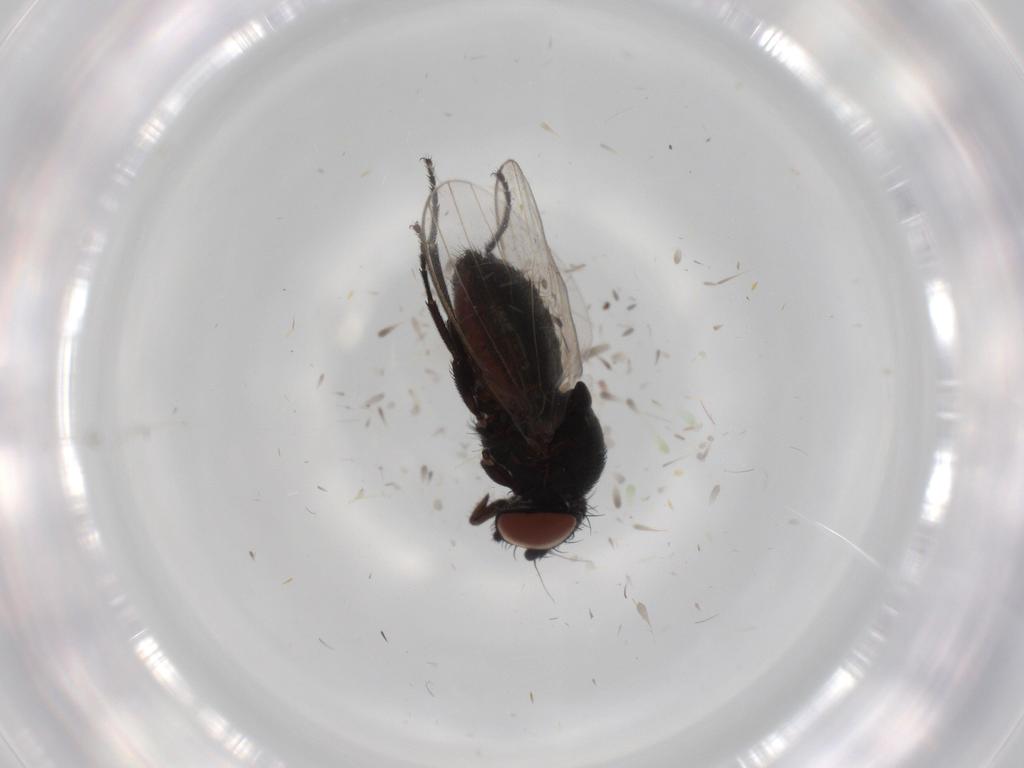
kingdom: Animalia
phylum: Arthropoda
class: Insecta
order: Diptera
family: Milichiidae
